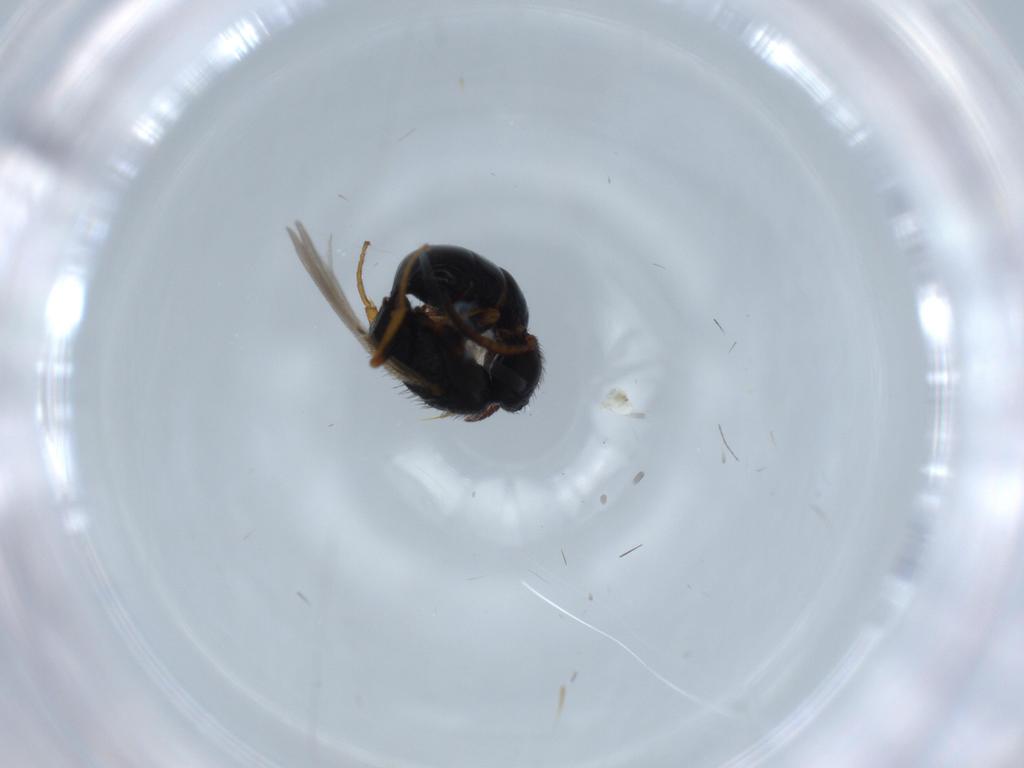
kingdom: Animalia
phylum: Arthropoda
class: Insecta
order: Hymenoptera
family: Bethylidae
